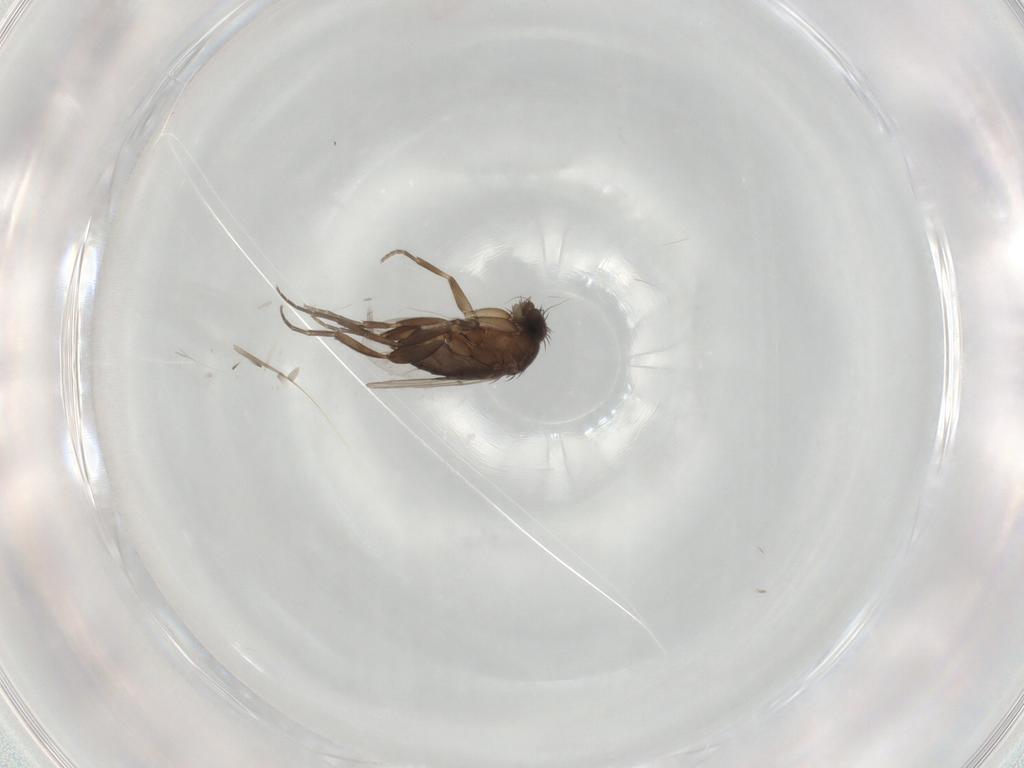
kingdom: Animalia
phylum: Arthropoda
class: Insecta
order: Diptera
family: Phoridae
